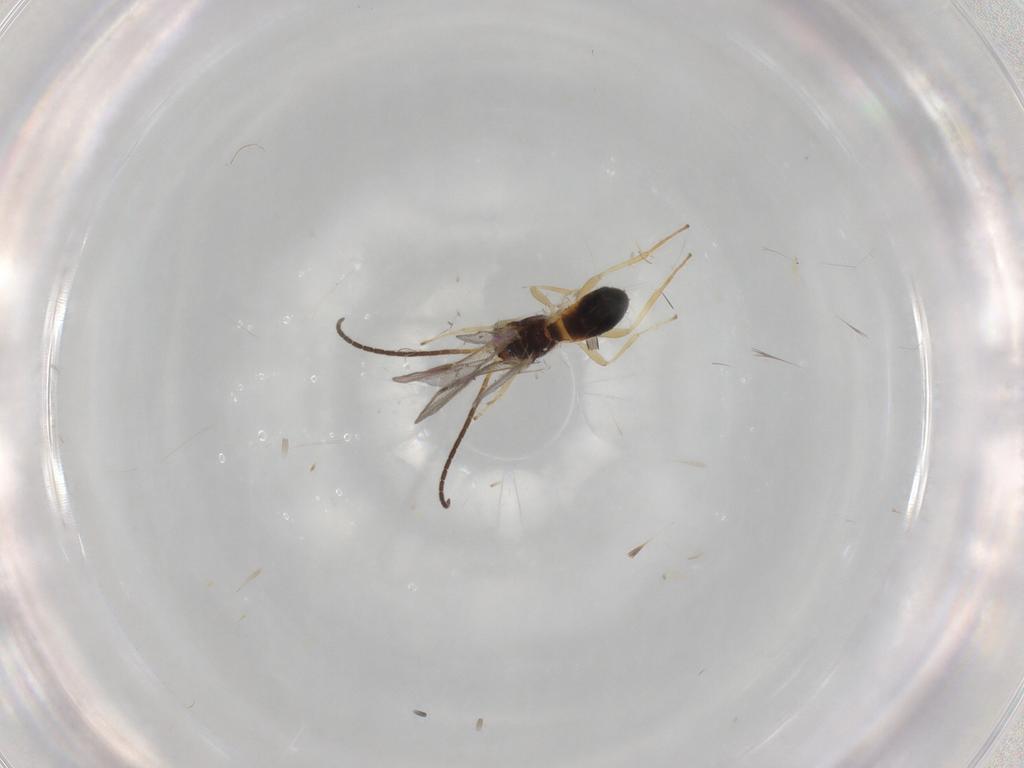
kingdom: Animalia
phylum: Arthropoda
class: Insecta
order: Hymenoptera
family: Braconidae
